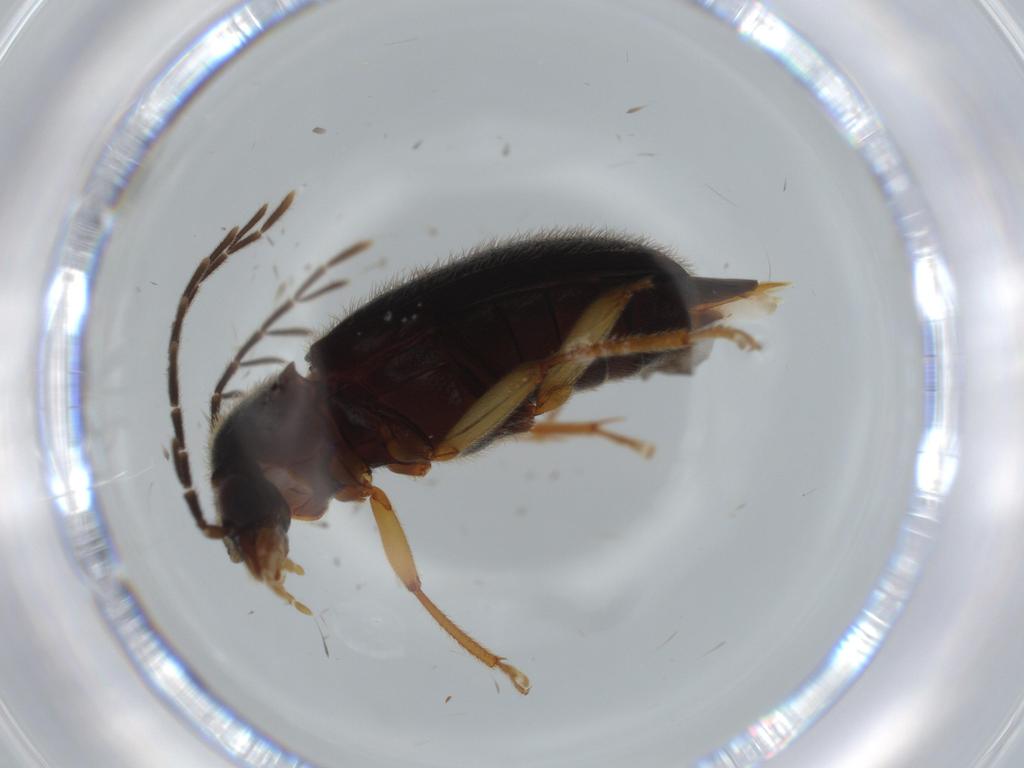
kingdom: Animalia
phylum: Arthropoda
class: Insecta
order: Coleoptera
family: Ptilodactylidae
